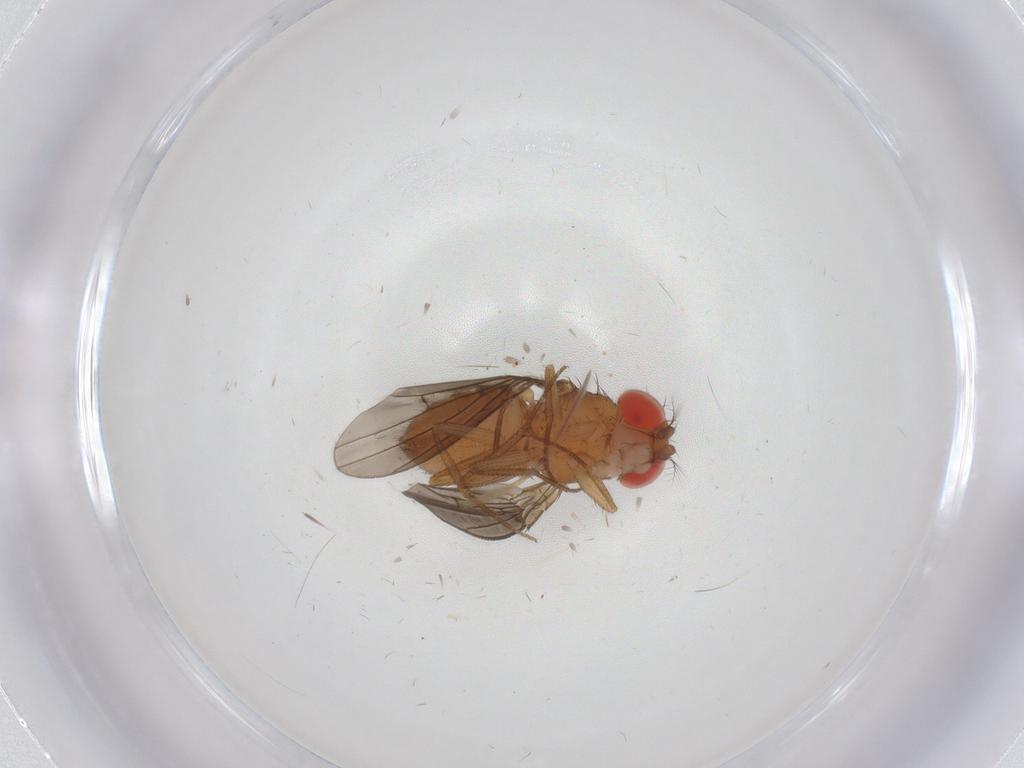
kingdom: Animalia
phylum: Arthropoda
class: Insecta
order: Diptera
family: Drosophilidae
